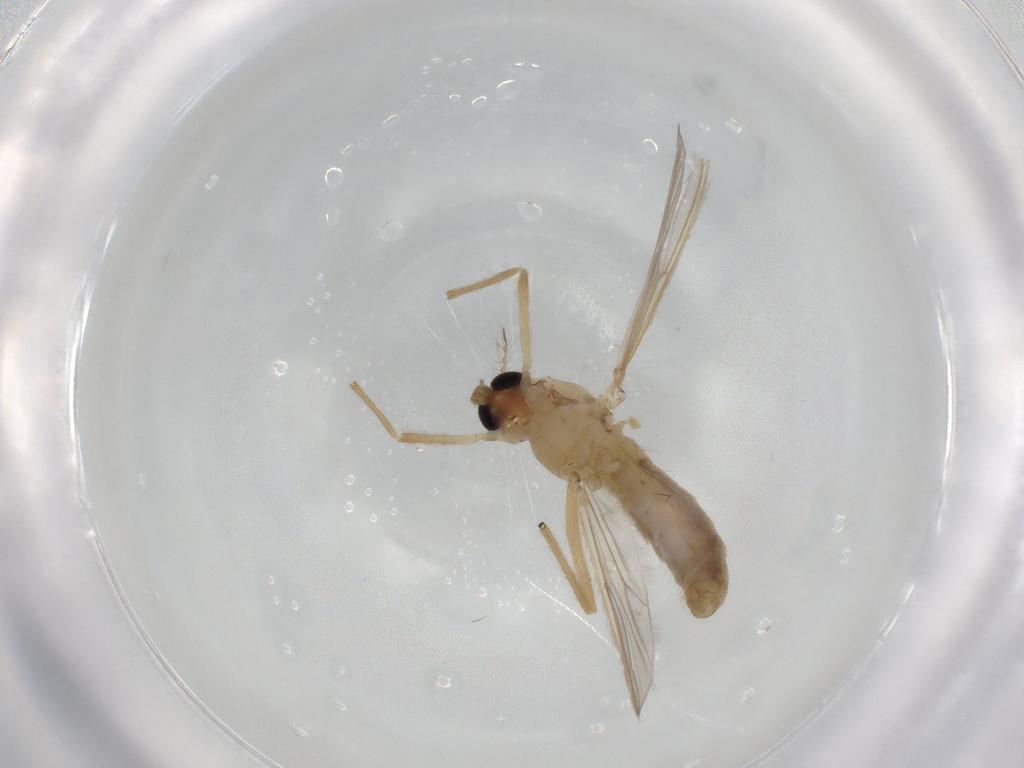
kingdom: Animalia
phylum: Arthropoda
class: Insecta
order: Diptera
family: Chironomidae
